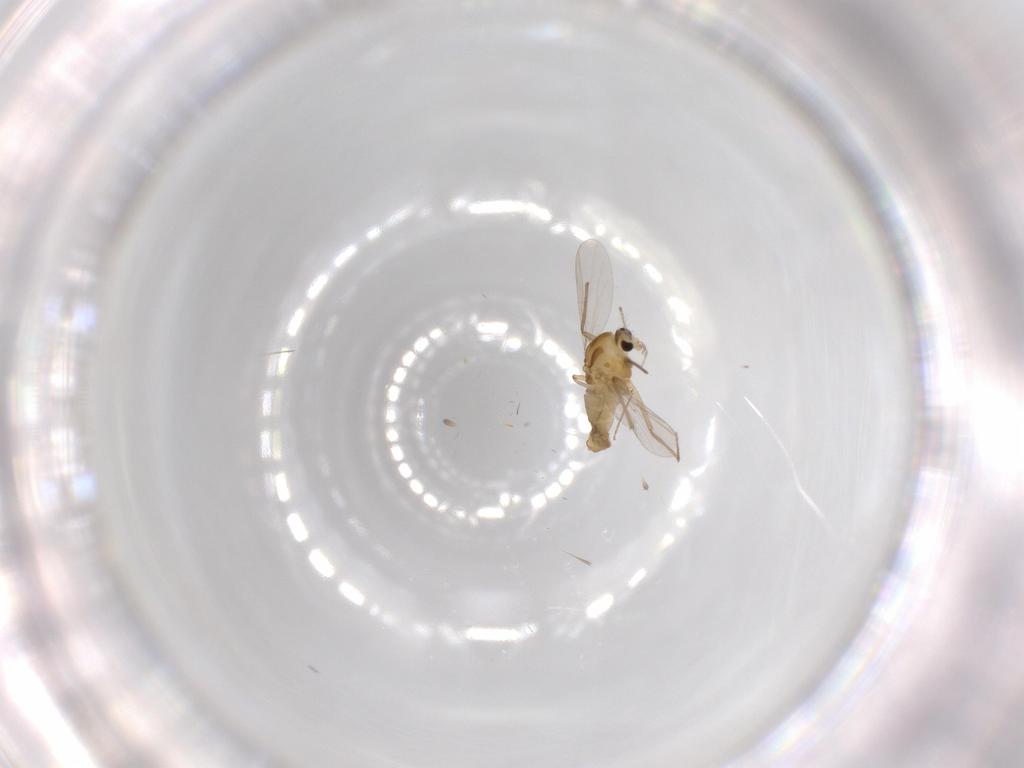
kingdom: Animalia
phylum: Arthropoda
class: Insecta
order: Diptera
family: Chironomidae
